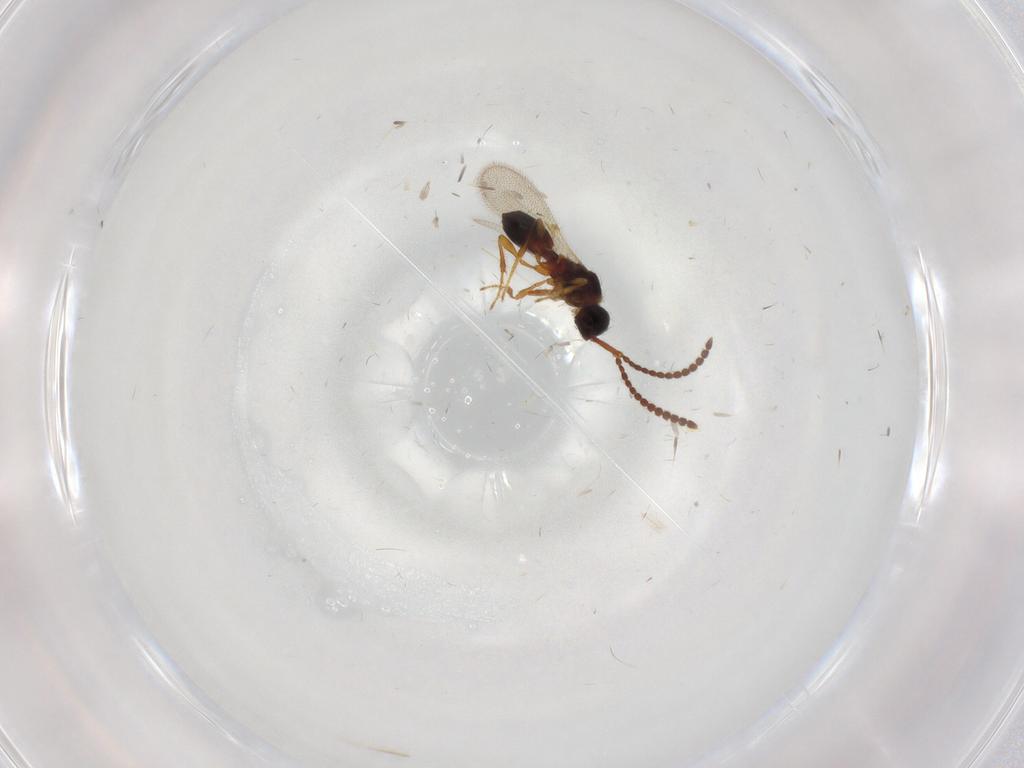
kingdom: Animalia
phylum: Arthropoda
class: Insecta
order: Hymenoptera
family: Diapriidae
